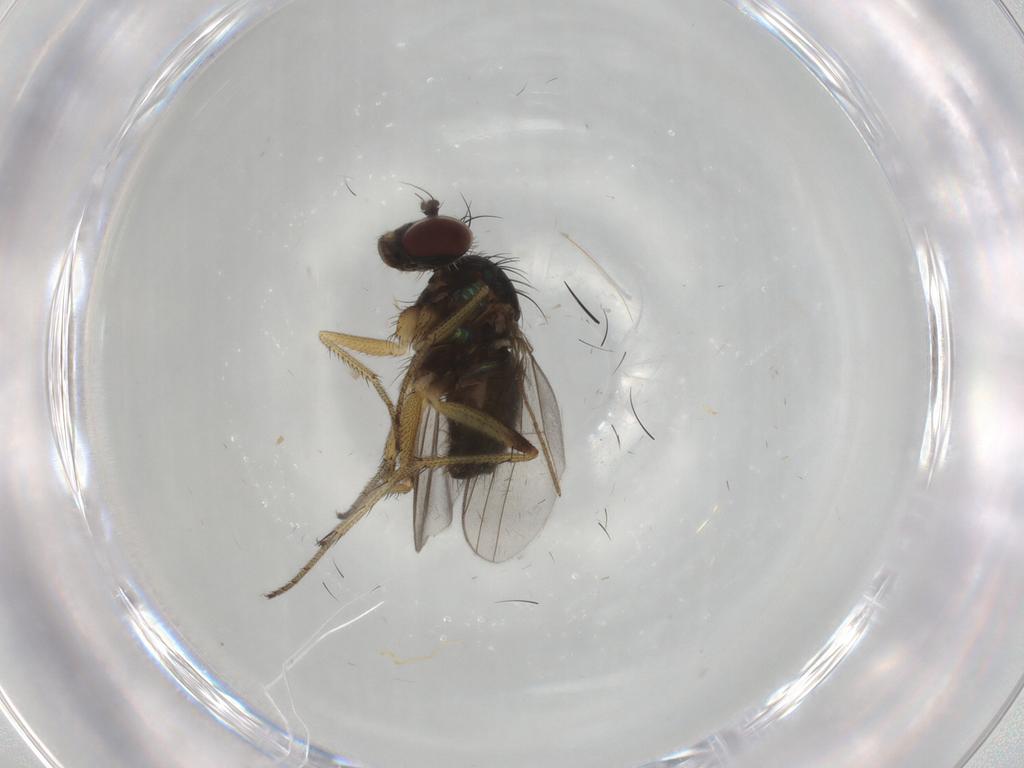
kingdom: Animalia
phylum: Arthropoda
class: Insecta
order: Diptera
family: Dolichopodidae
